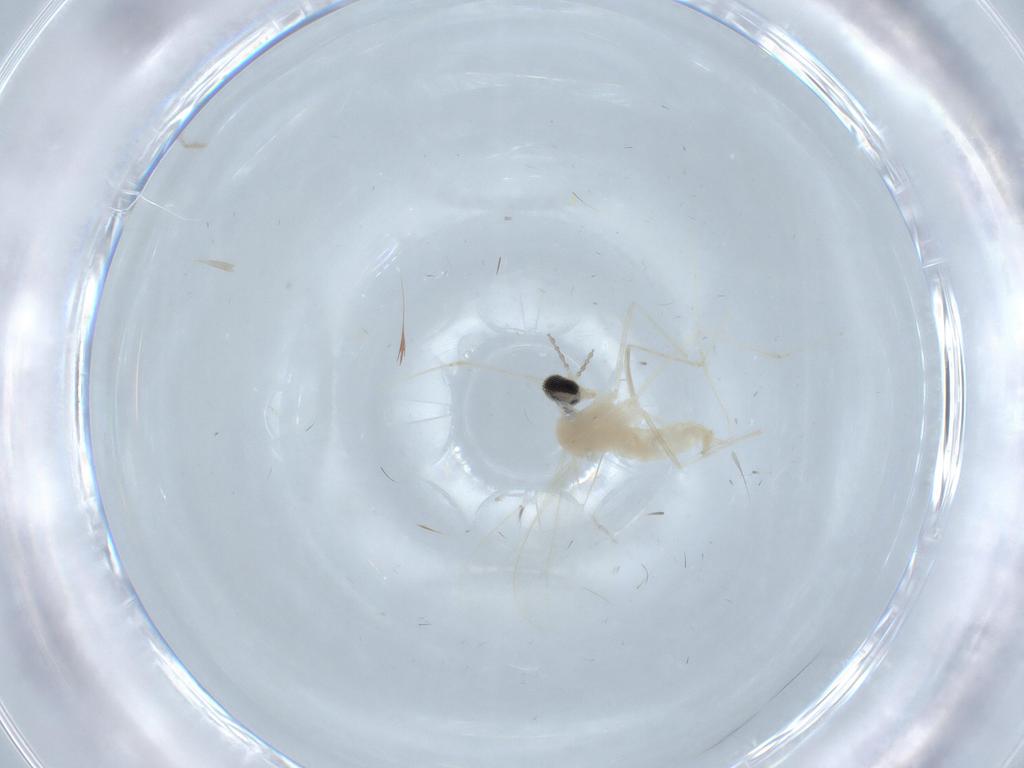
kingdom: Animalia
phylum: Arthropoda
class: Insecta
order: Diptera
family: Cecidomyiidae
